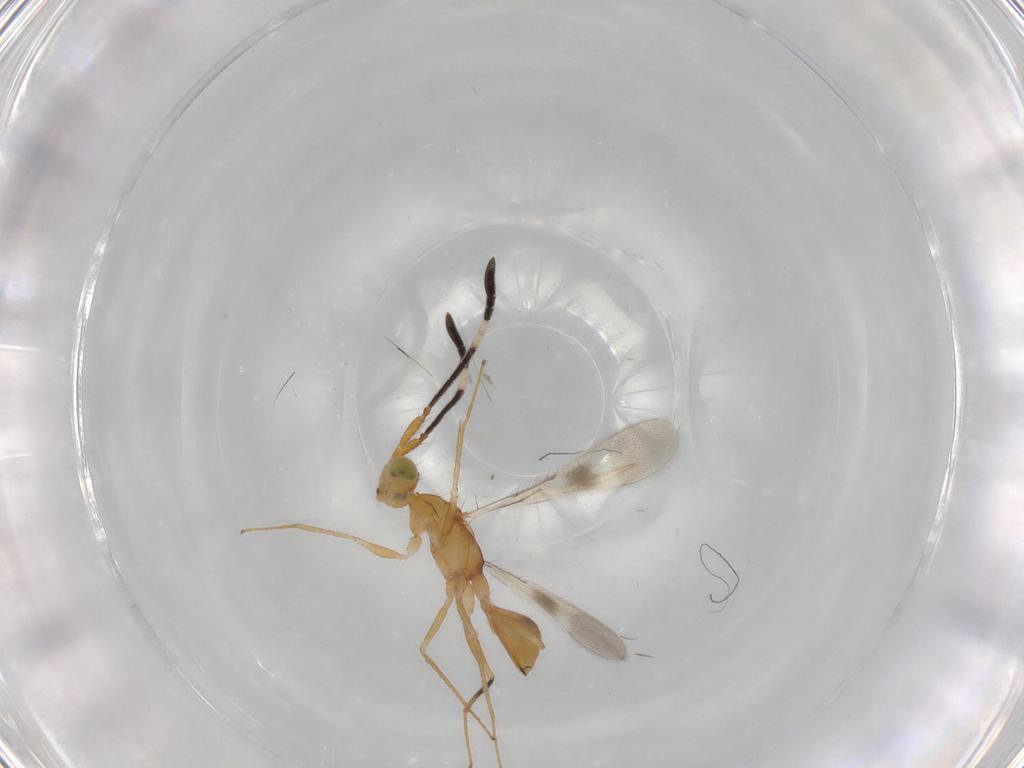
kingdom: Animalia
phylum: Arthropoda
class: Insecta
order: Hymenoptera
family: Mymaridae
